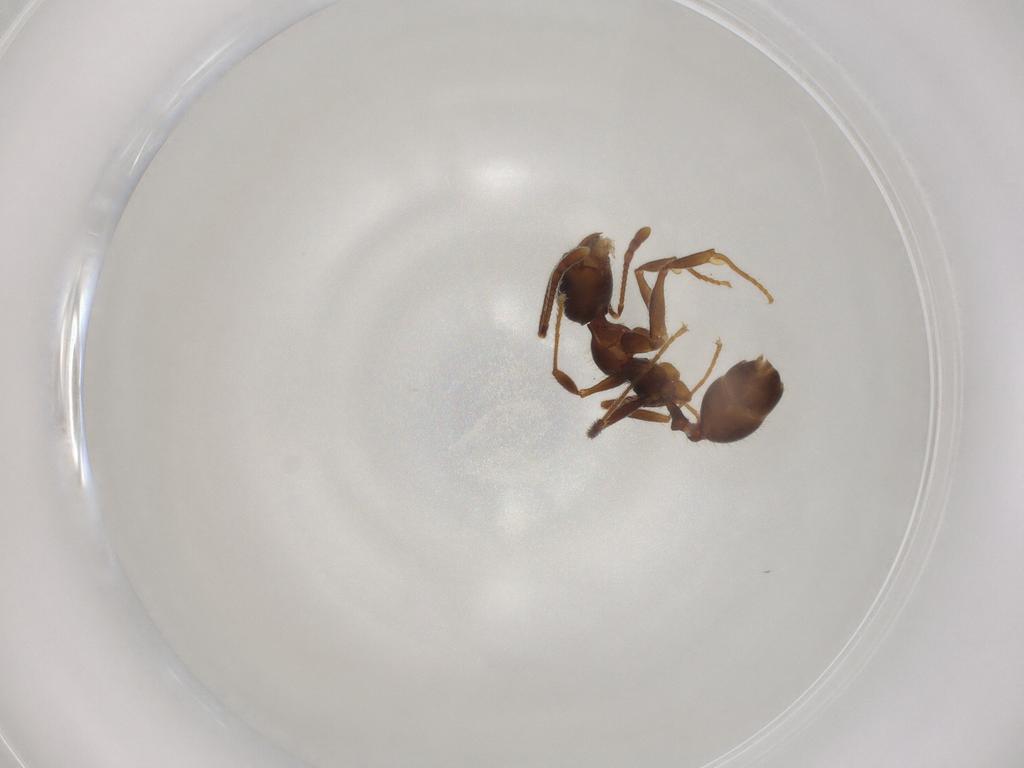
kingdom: Animalia
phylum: Arthropoda
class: Insecta
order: Hymenoptera
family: Formicidae
